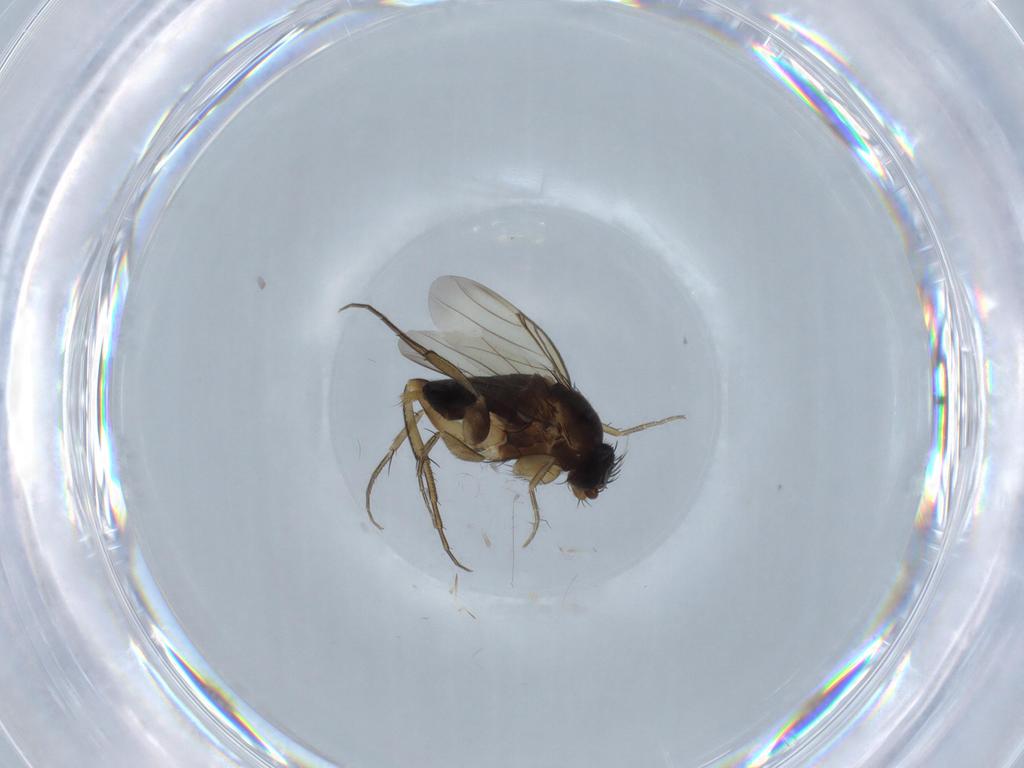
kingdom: Animalia
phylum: Arthropoda
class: Insecta
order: Diptera
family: Phoridae
